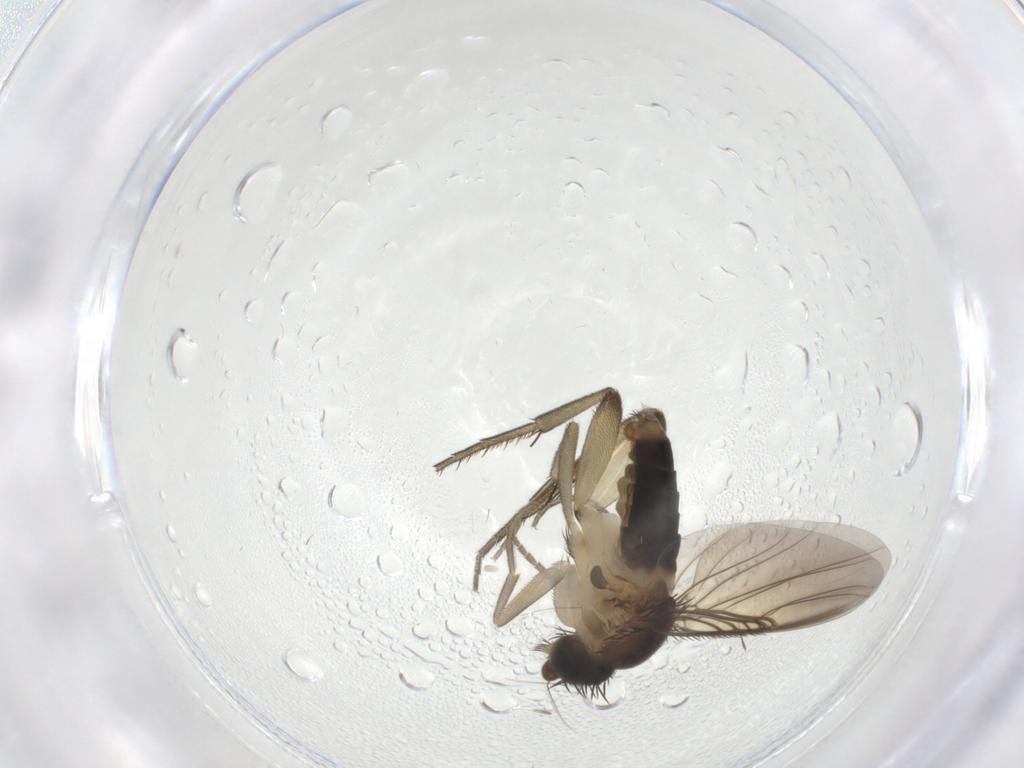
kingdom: Animalia
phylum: Arthropoda
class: Insecta
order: Diptera
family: Phoridae
